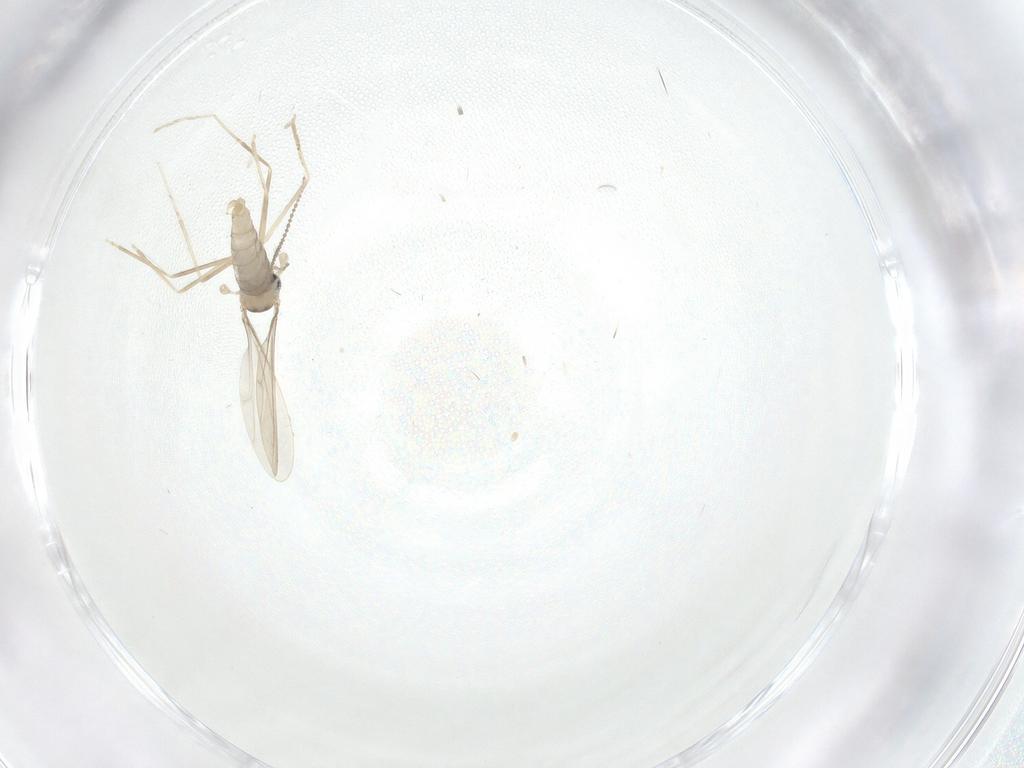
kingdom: Animalia
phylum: Arthropoda
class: Insecta
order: Diptera
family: Cecidomyiidae
